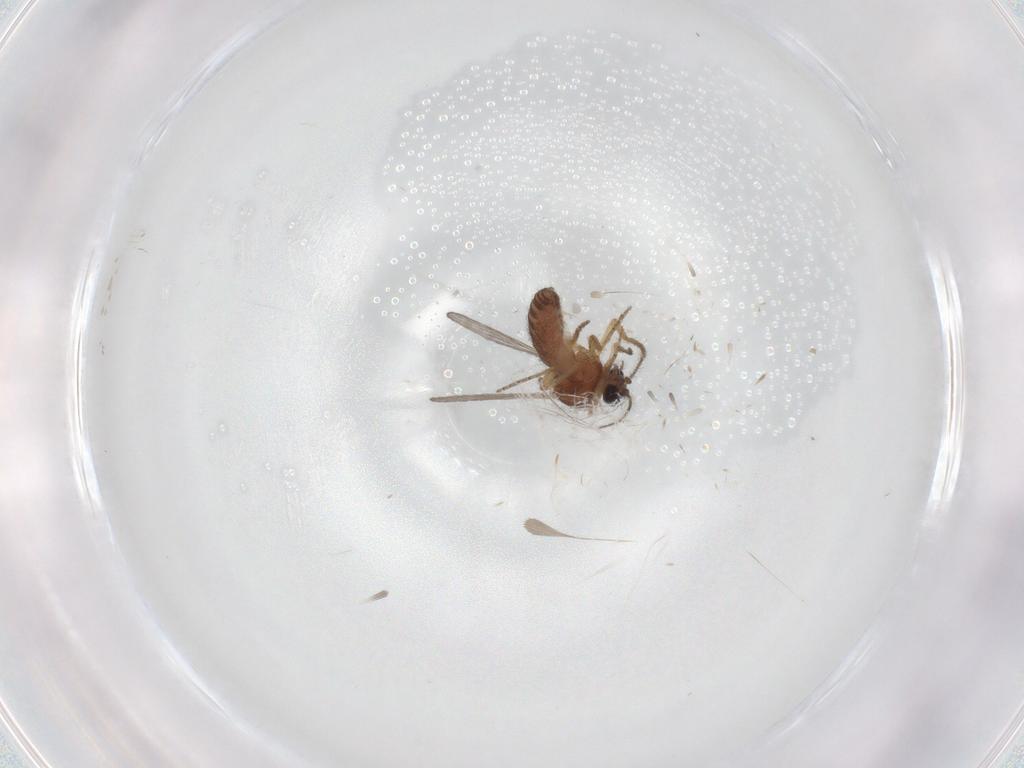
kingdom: Animalia
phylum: Arthropoda
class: Insecta
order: Diptera
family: Ceratopogonidae
